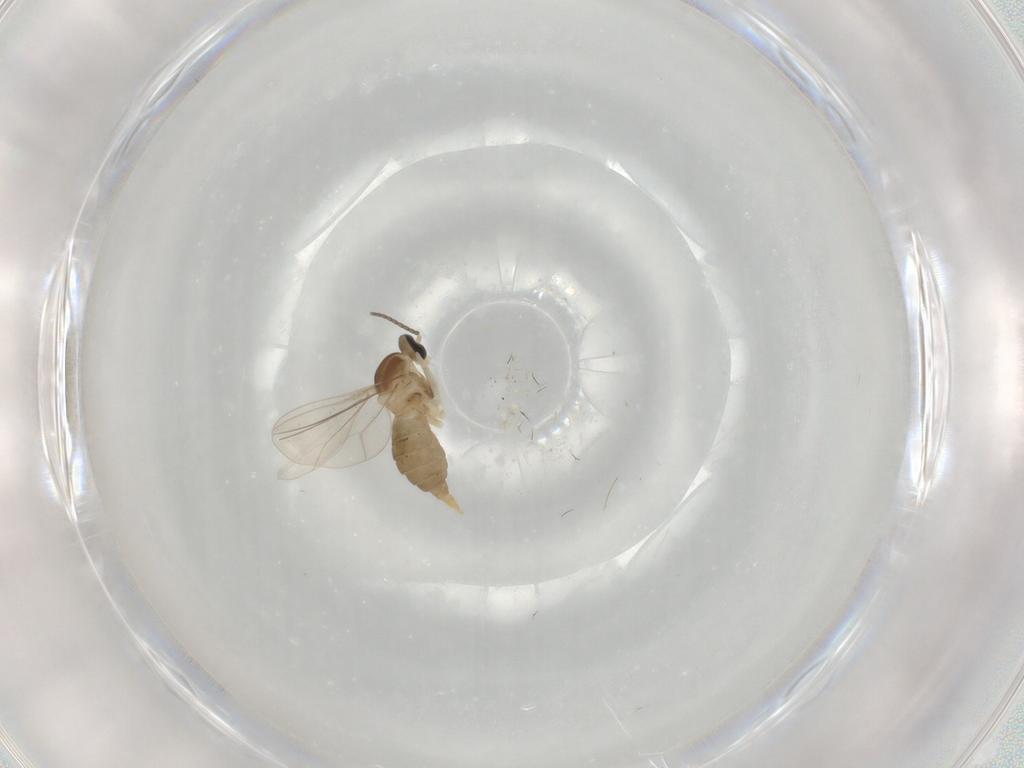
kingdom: Animalia
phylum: Arthropoda
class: Insecta
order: Diptera
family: Cecidomyiidae
